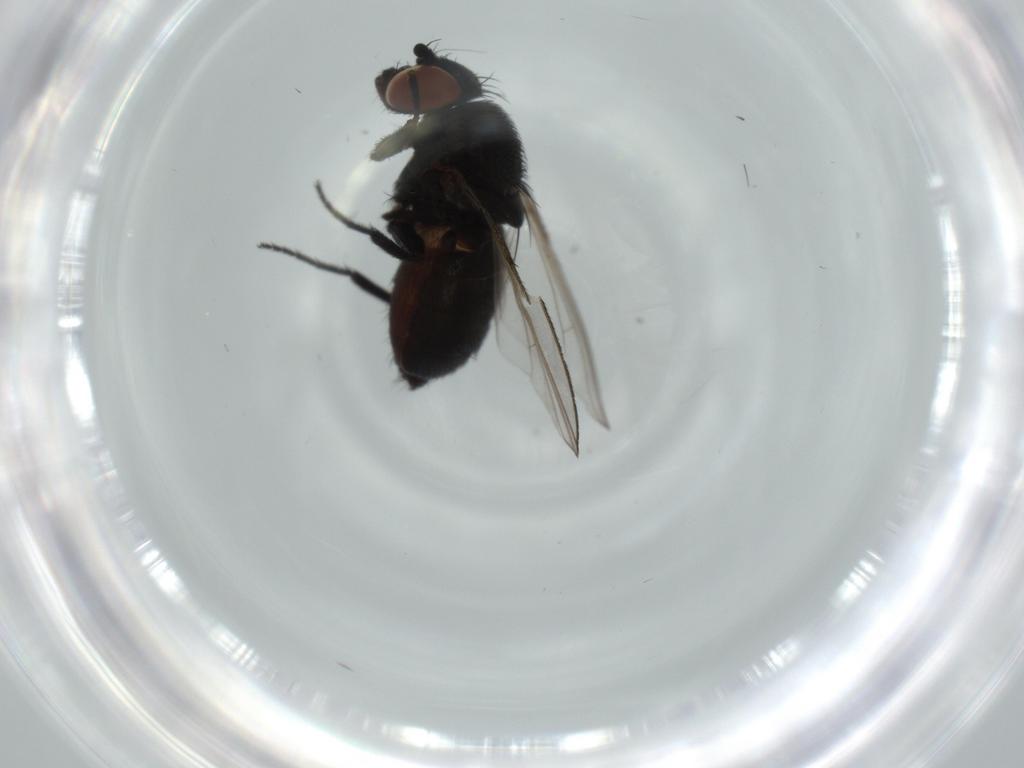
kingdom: Animalia
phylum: Arthropoda
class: Insecta
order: Diptera
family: Milichiidae
